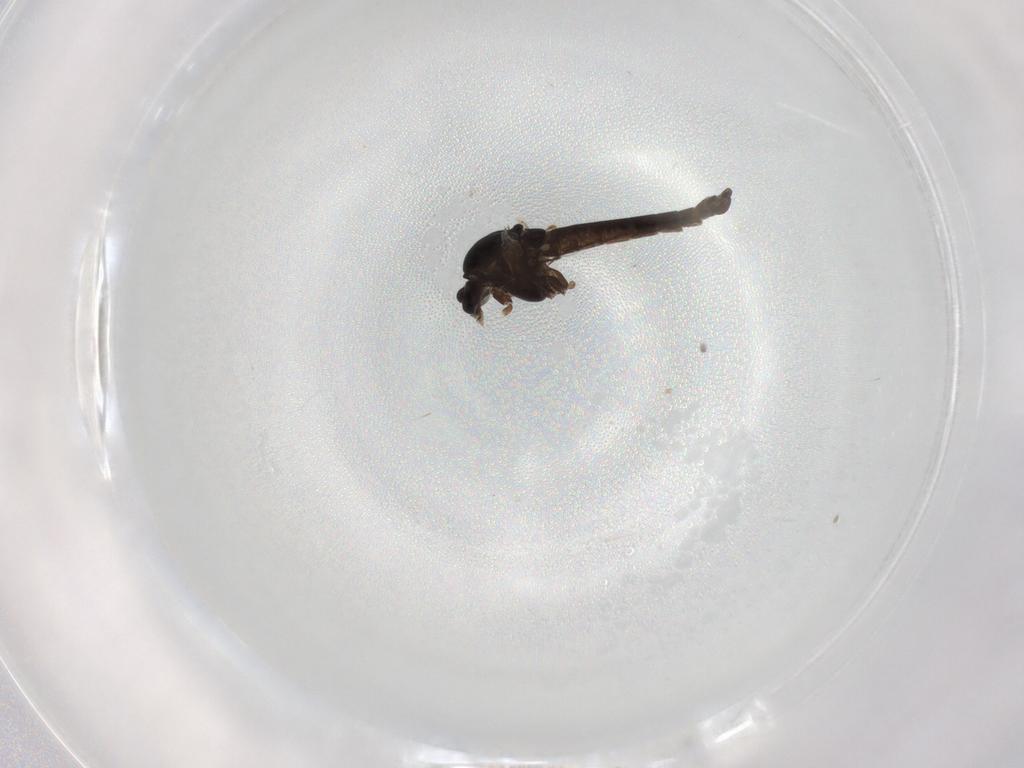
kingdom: Animalia
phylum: Arthropoda
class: Insecta
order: Diptera
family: Chironomidae
